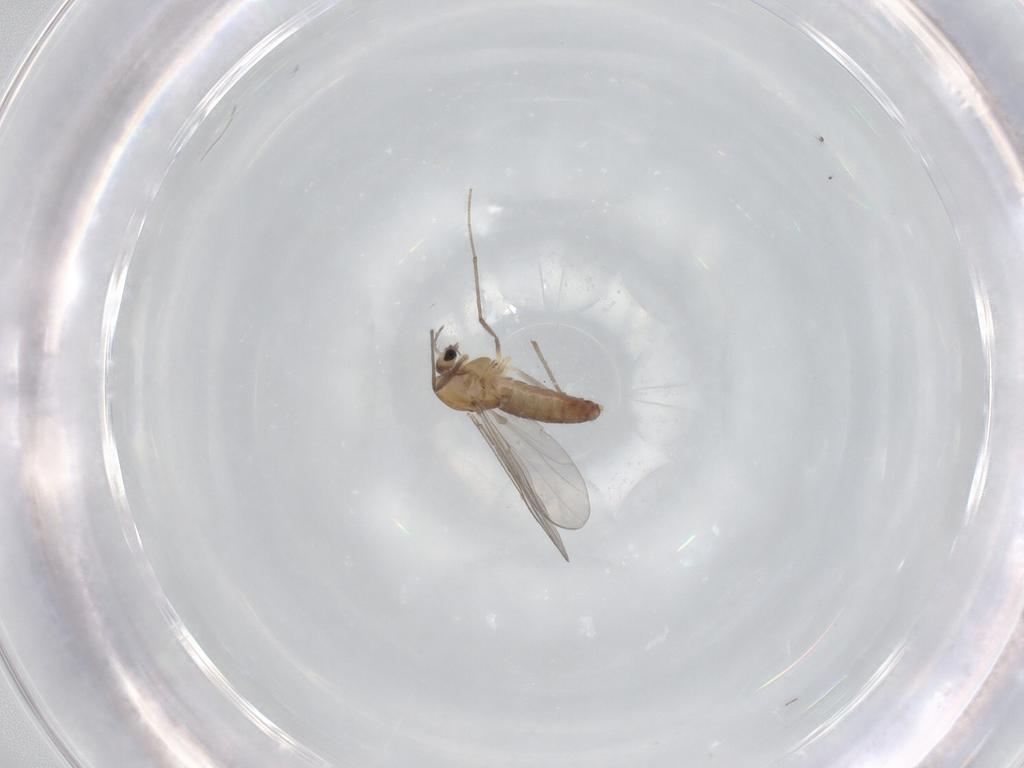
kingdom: Animalia
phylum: Arthropoda
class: Insecta
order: Diptera
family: Chironomidae
